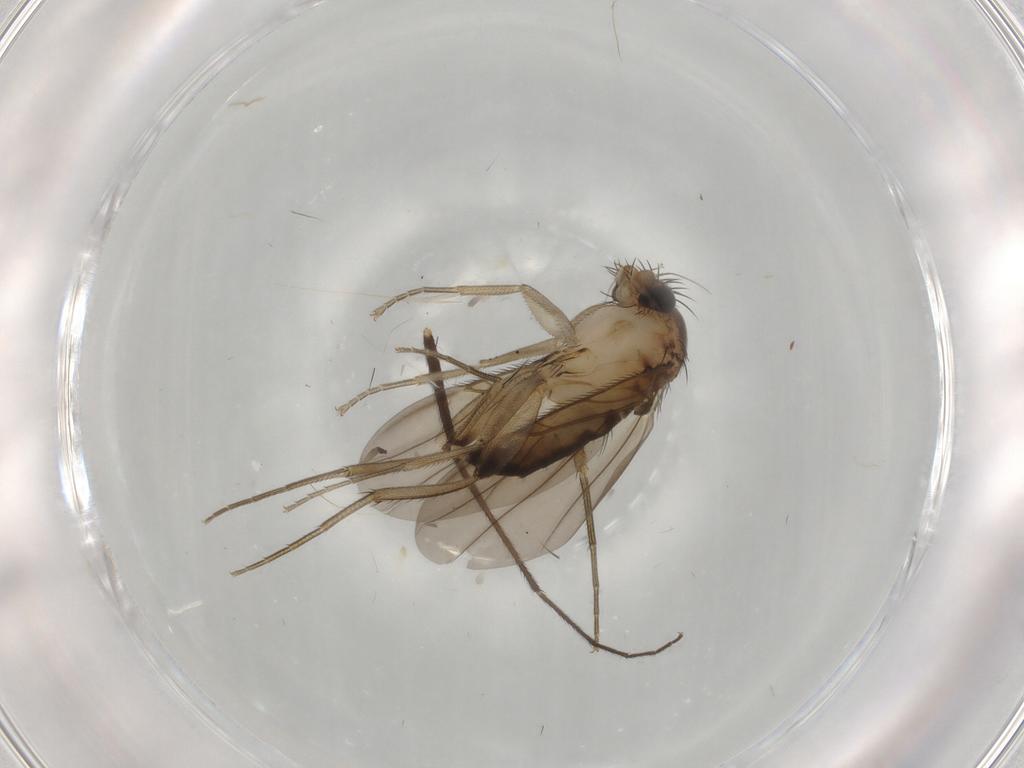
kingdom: Animalia
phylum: Arthropoda
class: Insecta
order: Diptera
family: Phoridae
